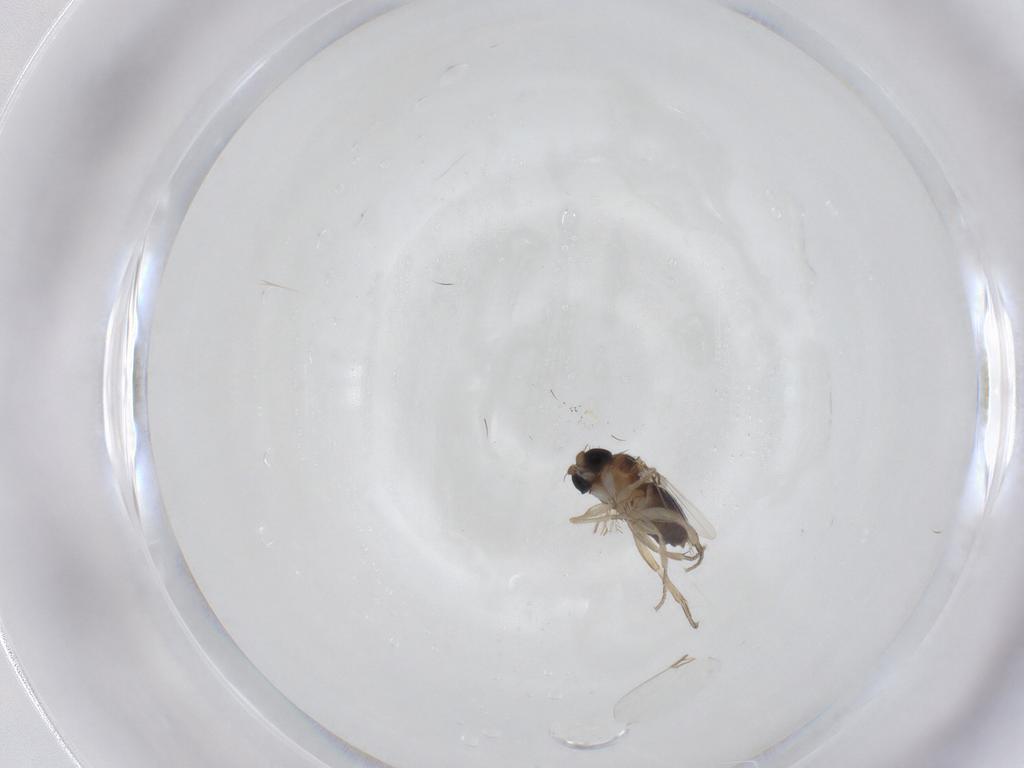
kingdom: Animalia
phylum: Arthropoda
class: Insecta
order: Diptera
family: Phoridae
